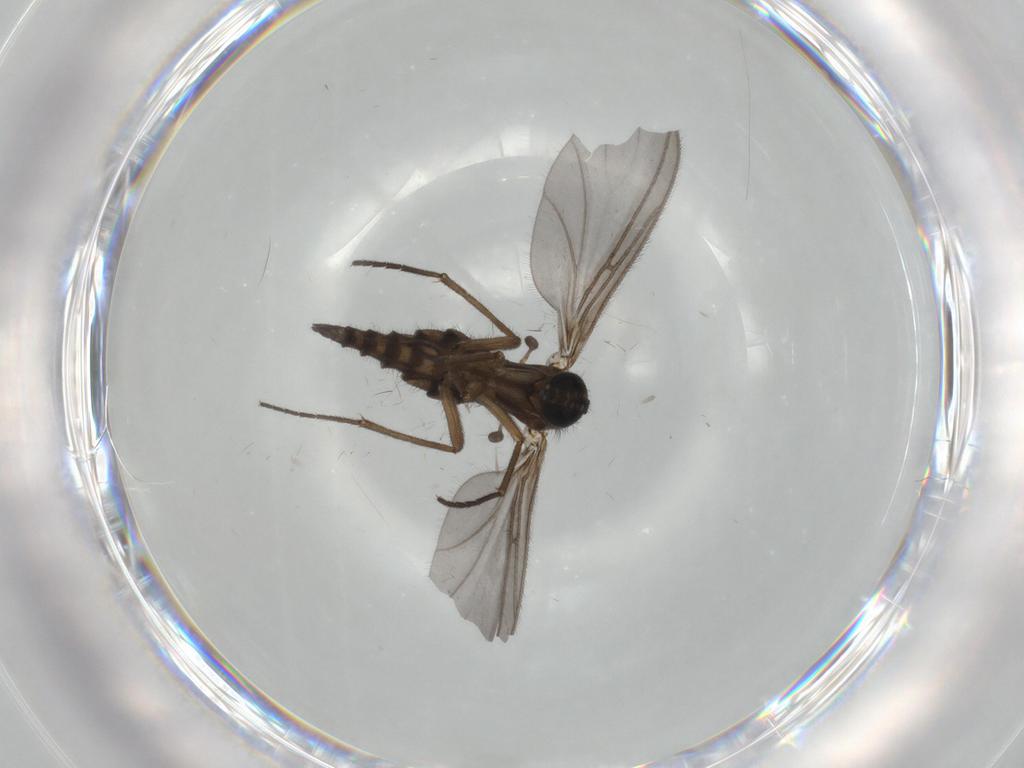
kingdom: Animalia
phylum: Arthropoda
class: Insecta
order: Diptera
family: Sciaridae
